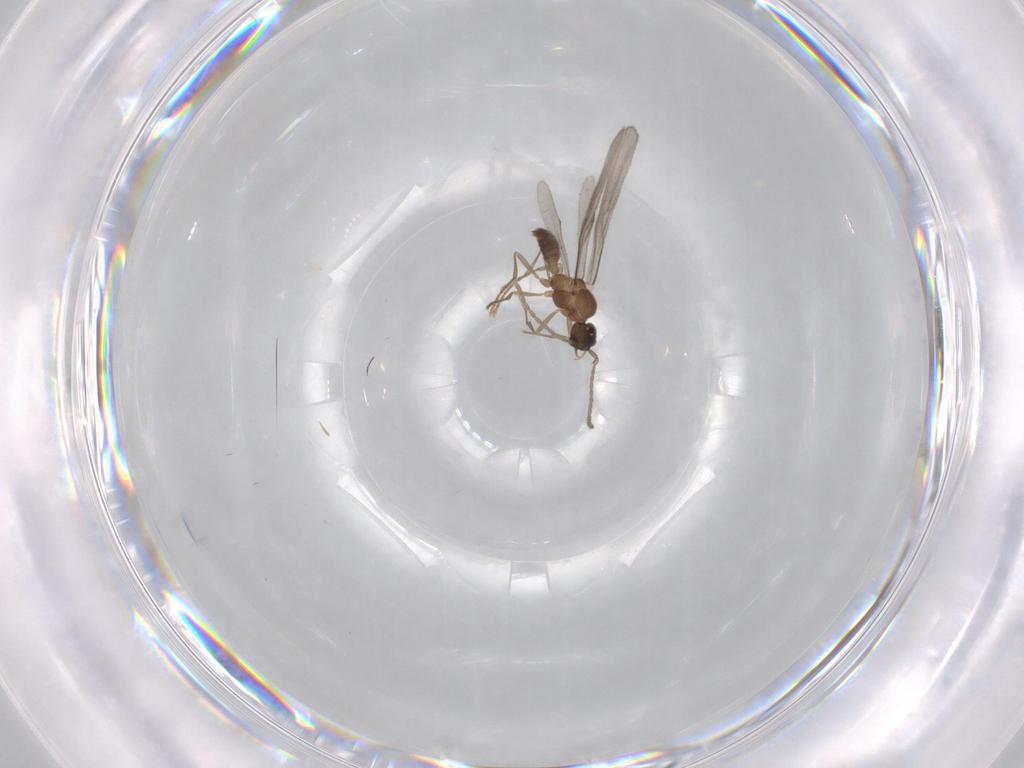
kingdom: Animalia
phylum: Arthropoda
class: Insecta
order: Hymenoptera
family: Formicidae
